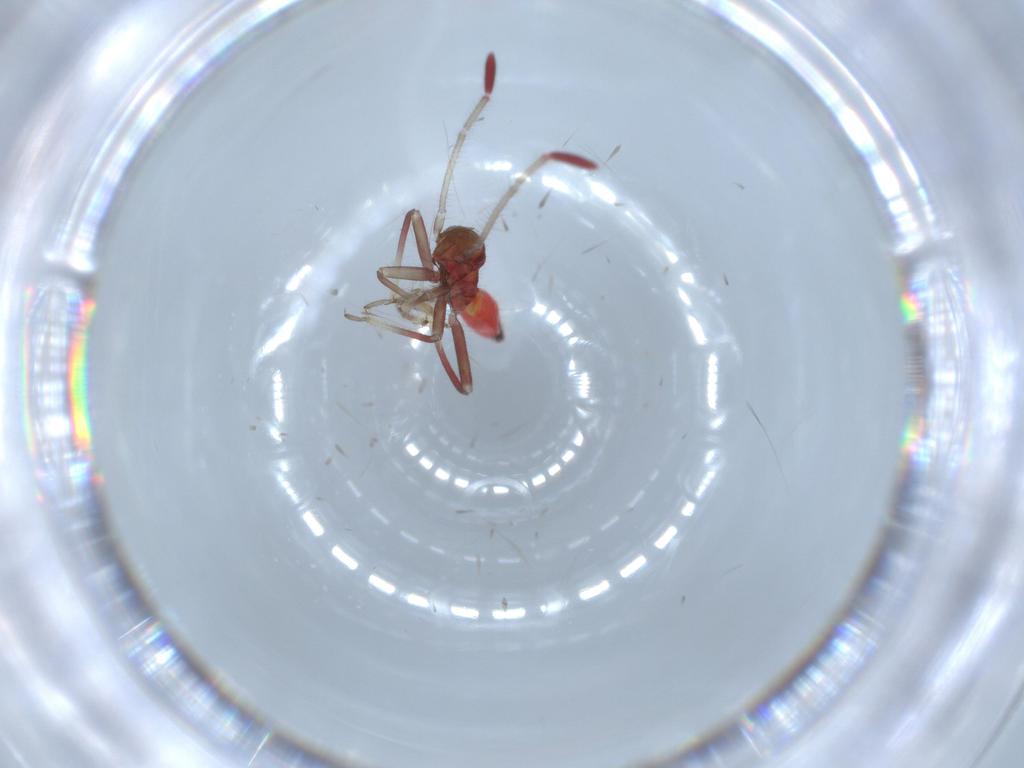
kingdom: Animalia
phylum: Arthropoda
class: Insecta
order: Hemiptera
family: Miridae
